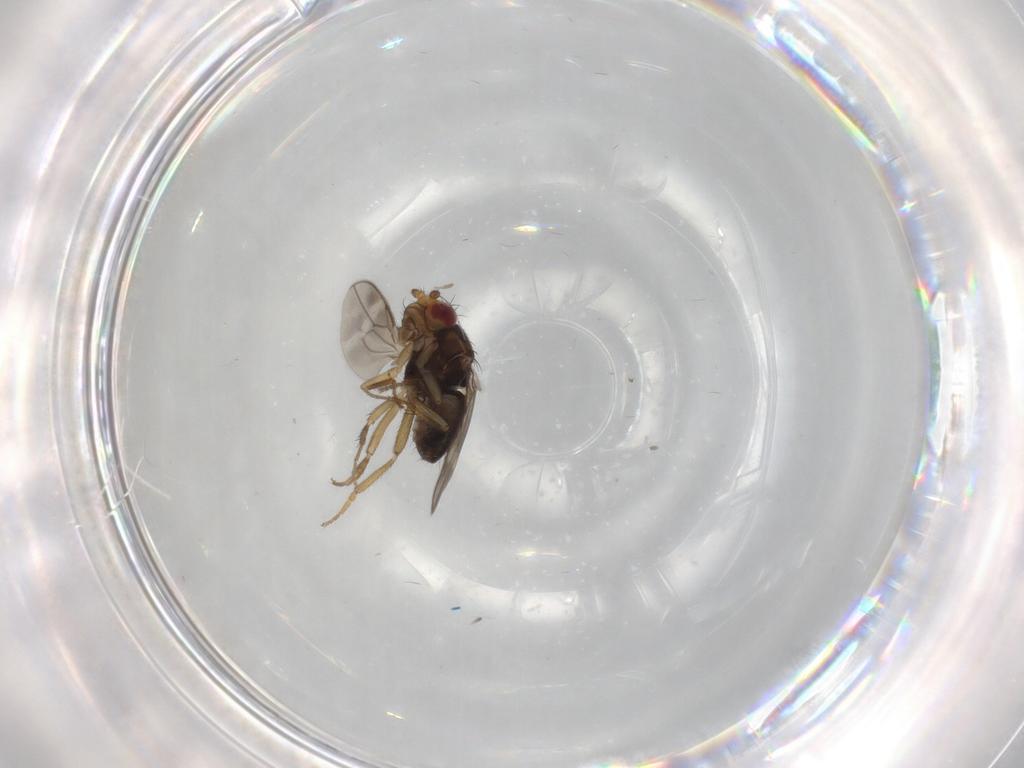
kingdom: Animalia
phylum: Arthropoda
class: Insecta
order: Diptera
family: Sphaeroceridae
